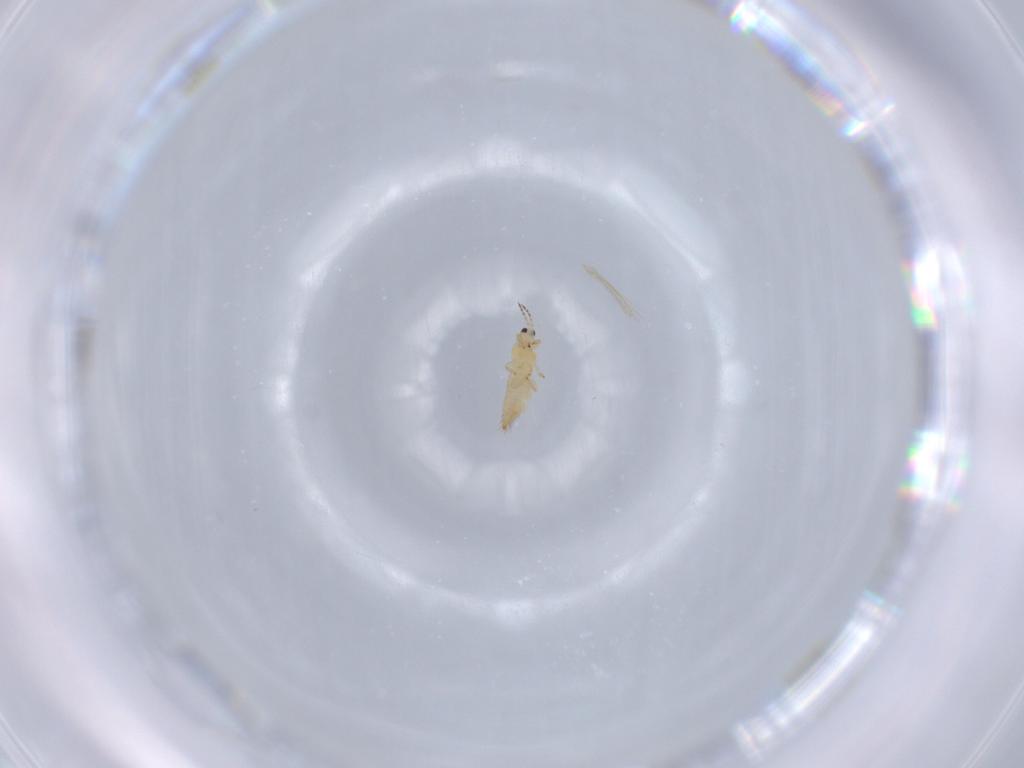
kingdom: Animalia
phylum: Arthropoda
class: Insecta
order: Thysanoptera
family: Thripidae
